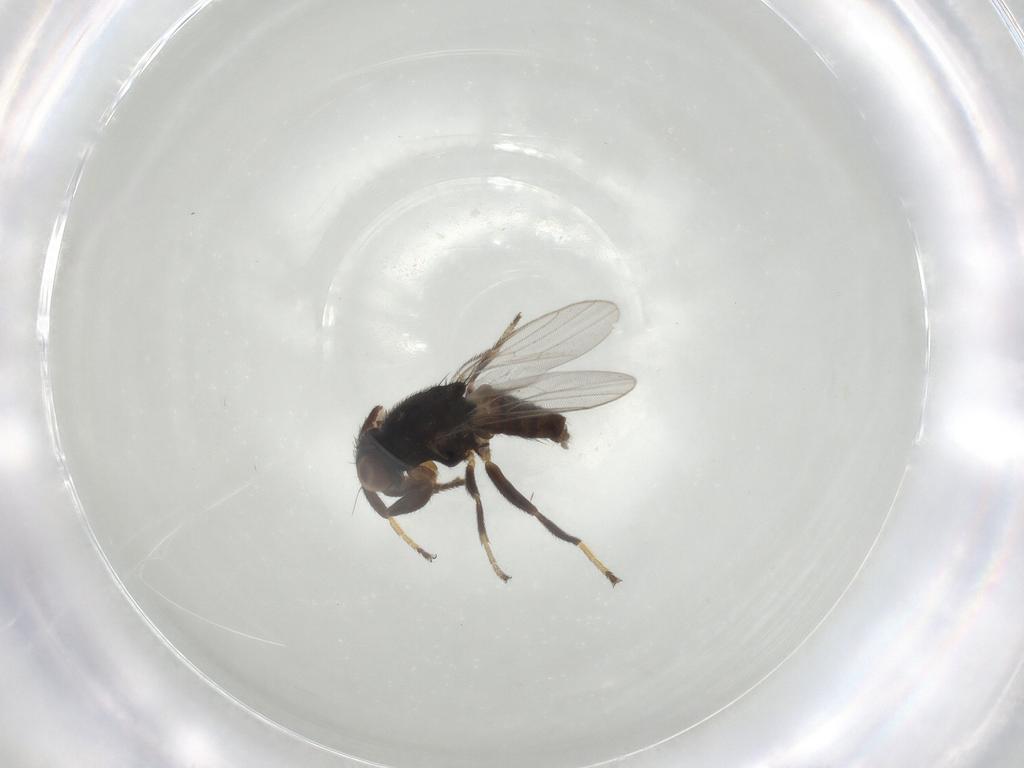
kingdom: Animalia
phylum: Arthropoda
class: Insecta
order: Diptera
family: Chloropidae
